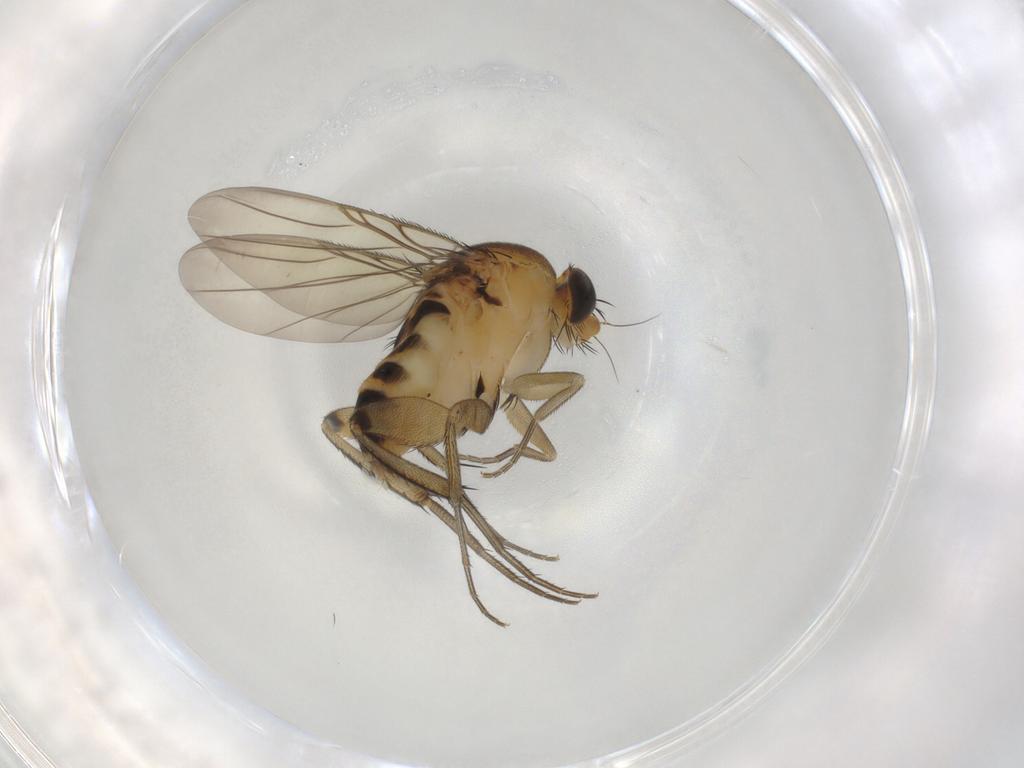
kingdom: Animalia
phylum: Arthropoda
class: Insecta
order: Diptera
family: Phoridae
